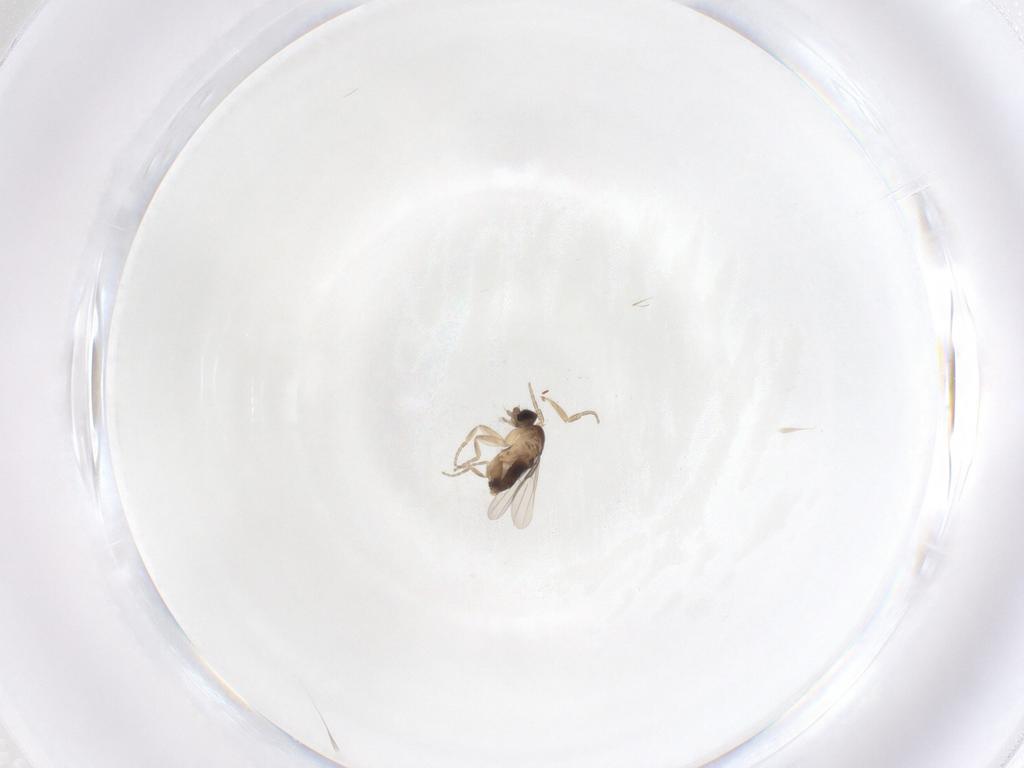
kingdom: Animalia
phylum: Arthropoda
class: Insecta
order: Diptera
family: Phoridae
